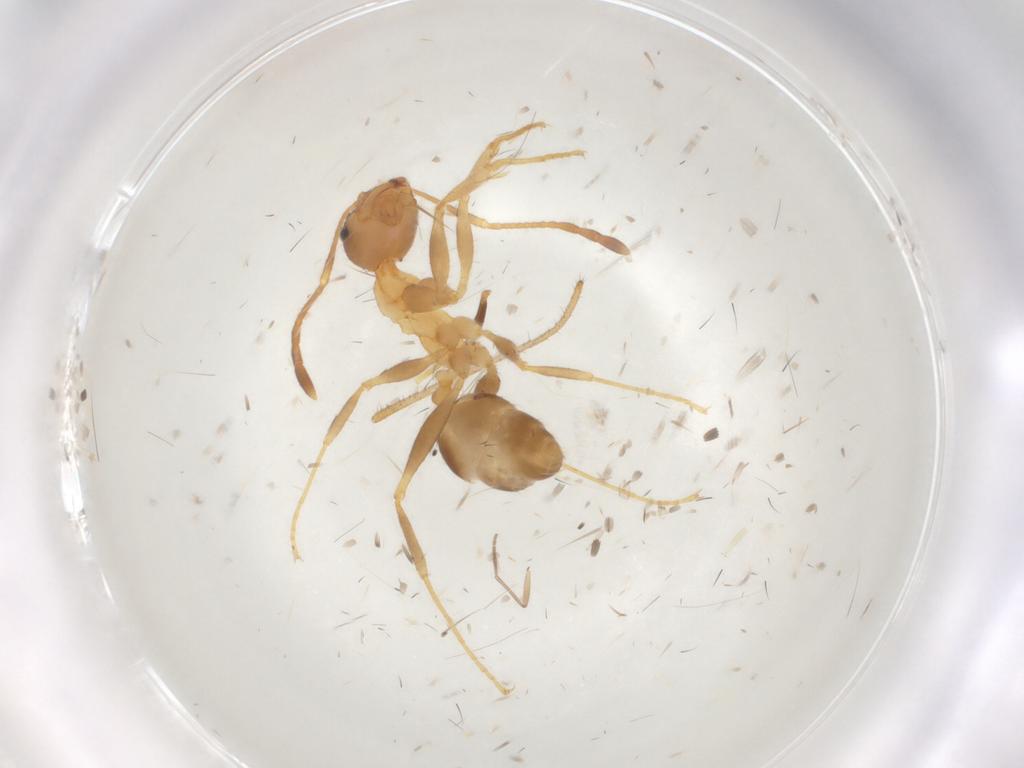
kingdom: Animalia
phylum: Arthropoda
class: Insecta
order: Hymenoptera
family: Formicidae
